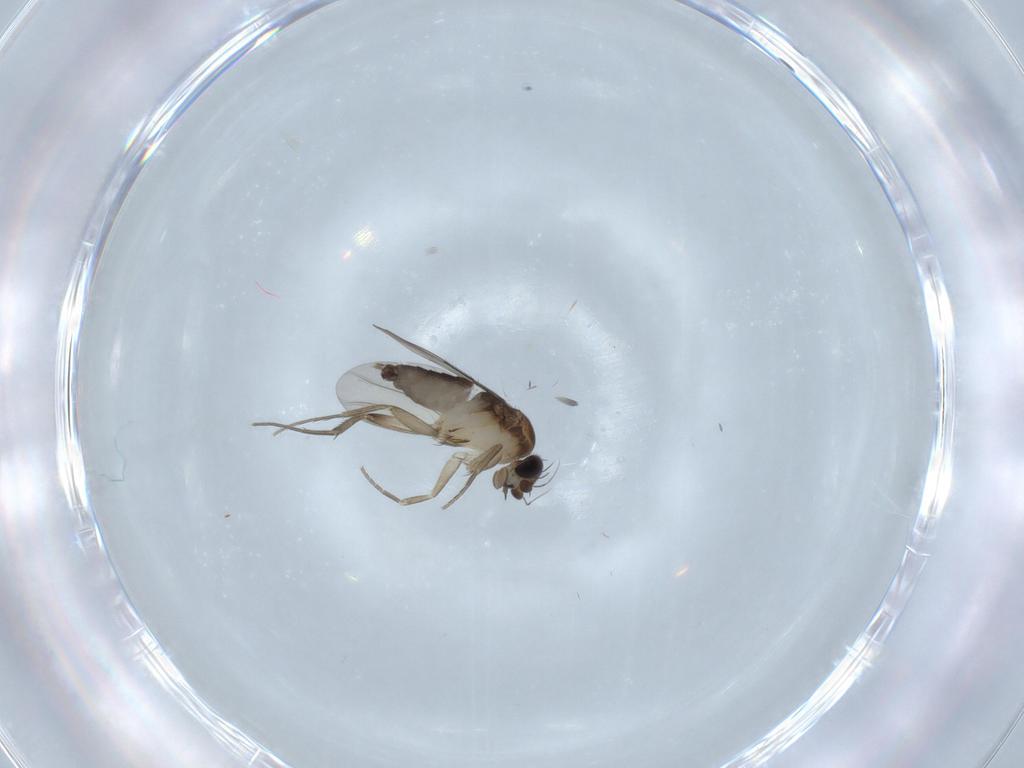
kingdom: Animalia
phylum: Arthropoda
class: Insecta
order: Diptera
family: Phoridae
